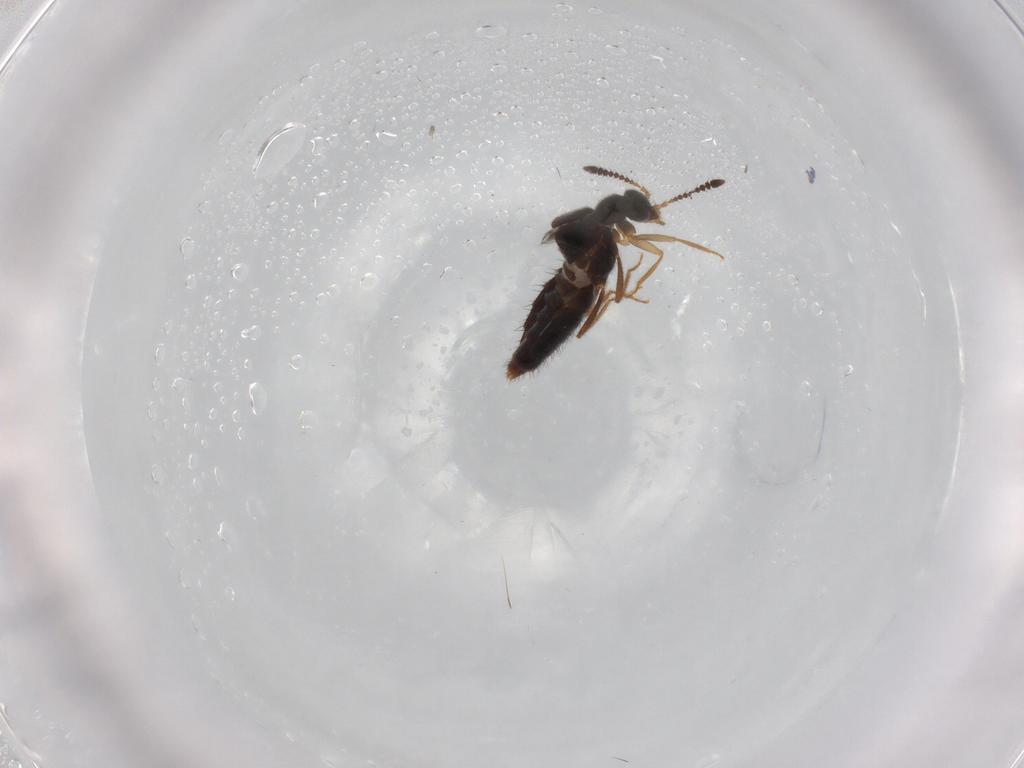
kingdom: Animalia
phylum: Arthropoda
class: Insecta
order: Coleoptera
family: Staphylinidae
